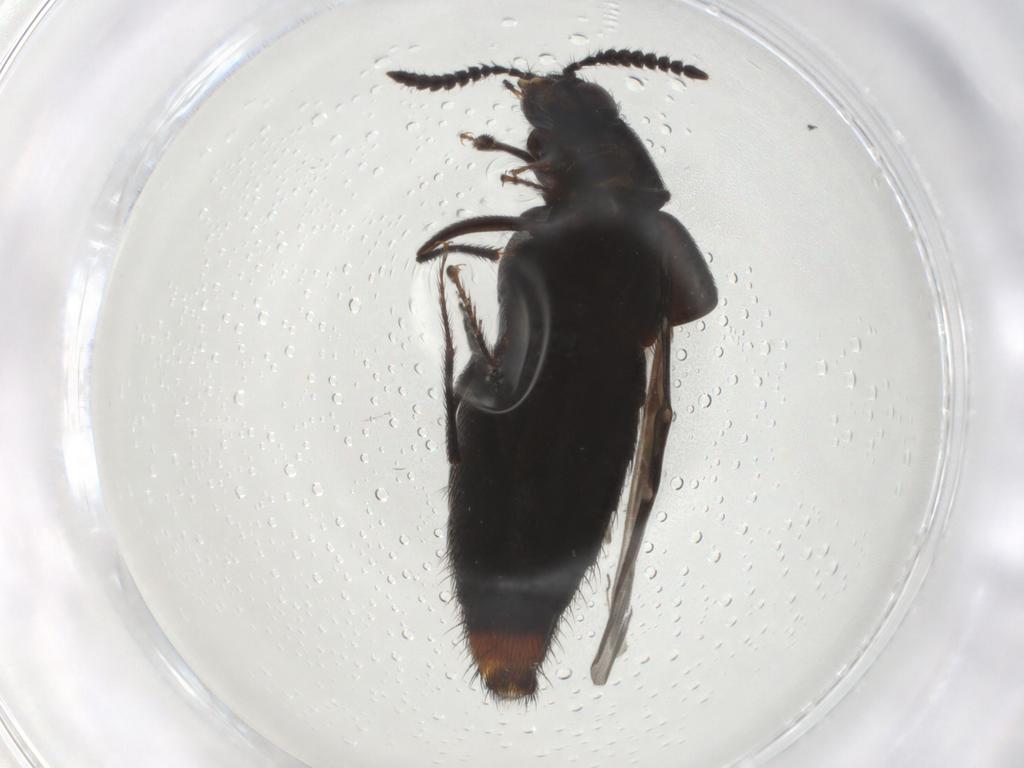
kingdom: Animalia
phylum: Arthropoda
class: Insecta
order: Coleoptera
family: Staphylinidae
